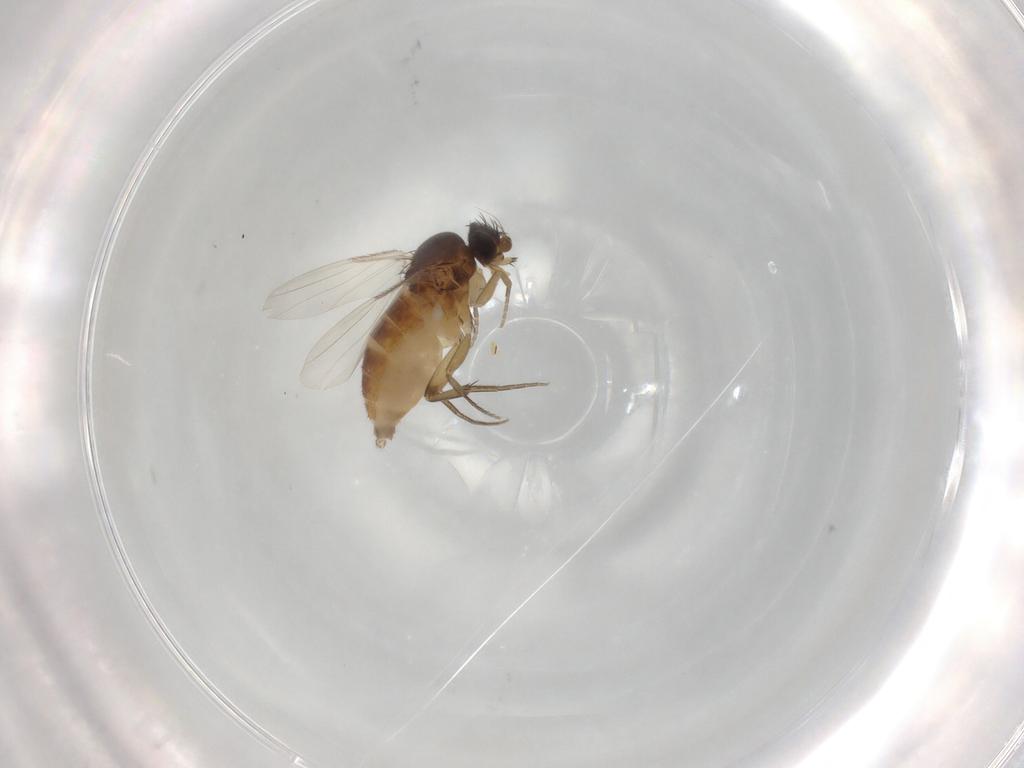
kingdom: Animalia
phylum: Arthropoda
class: Insecta
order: Diptera
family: Phoridae
